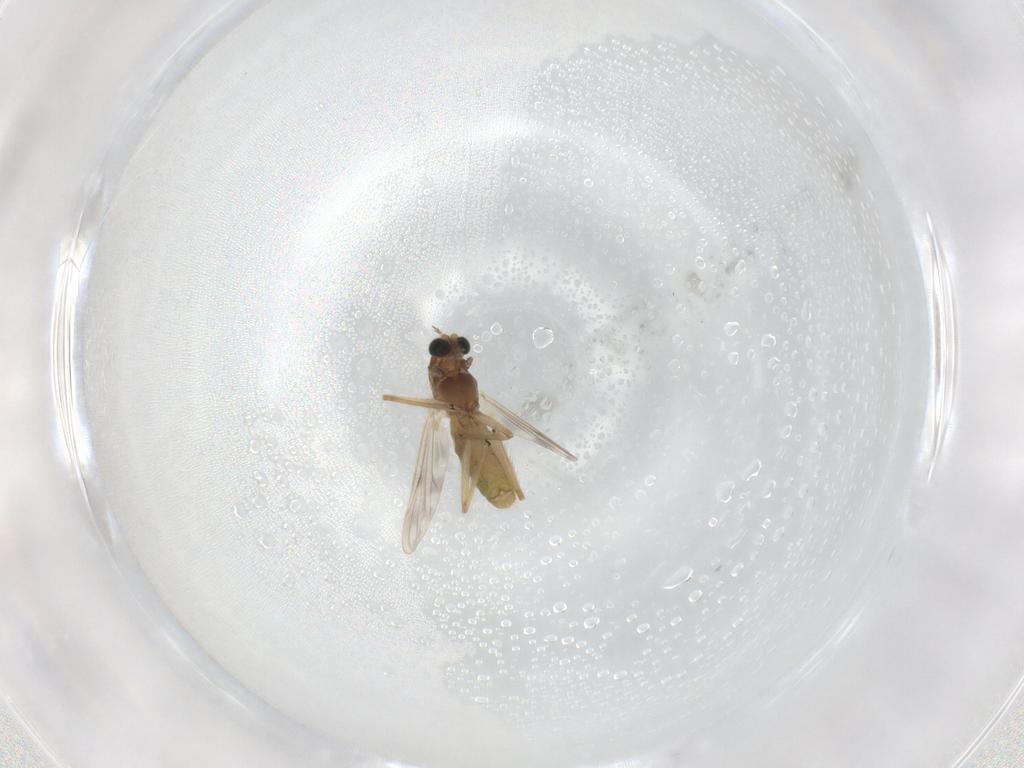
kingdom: Animalia
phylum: Arthropoda
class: Insecta
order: Diptera
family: Chironomidae
